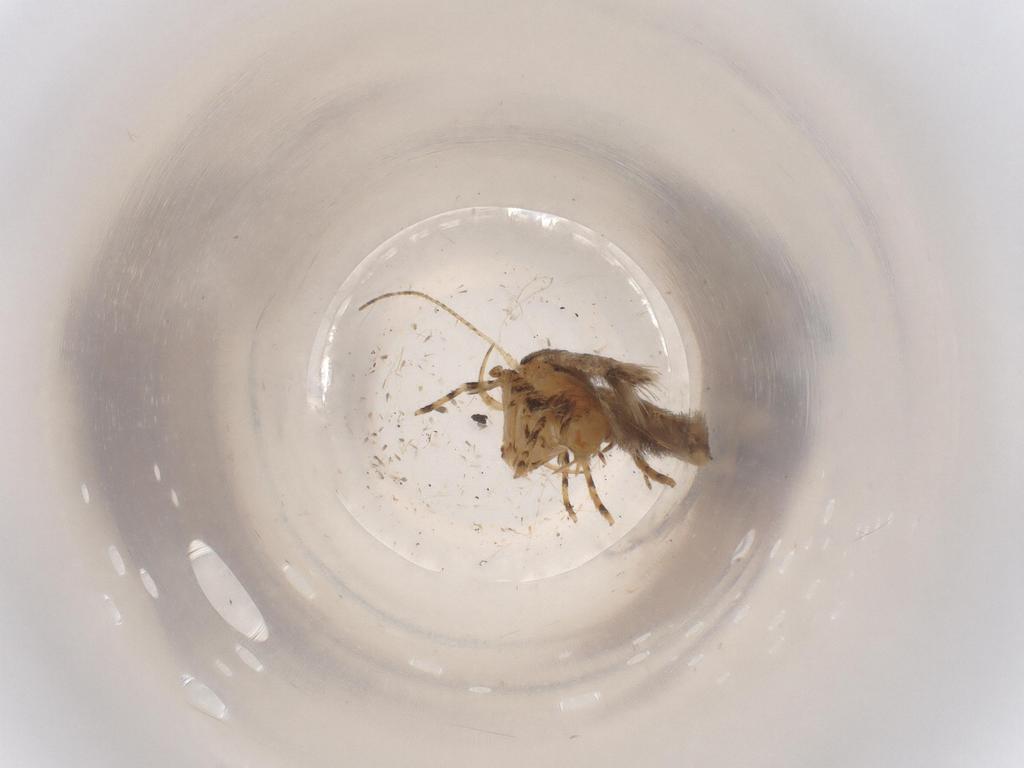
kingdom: Animalia
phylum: Arthropoda
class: Insecta
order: Lepidoptera
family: Cosmopterigidae
